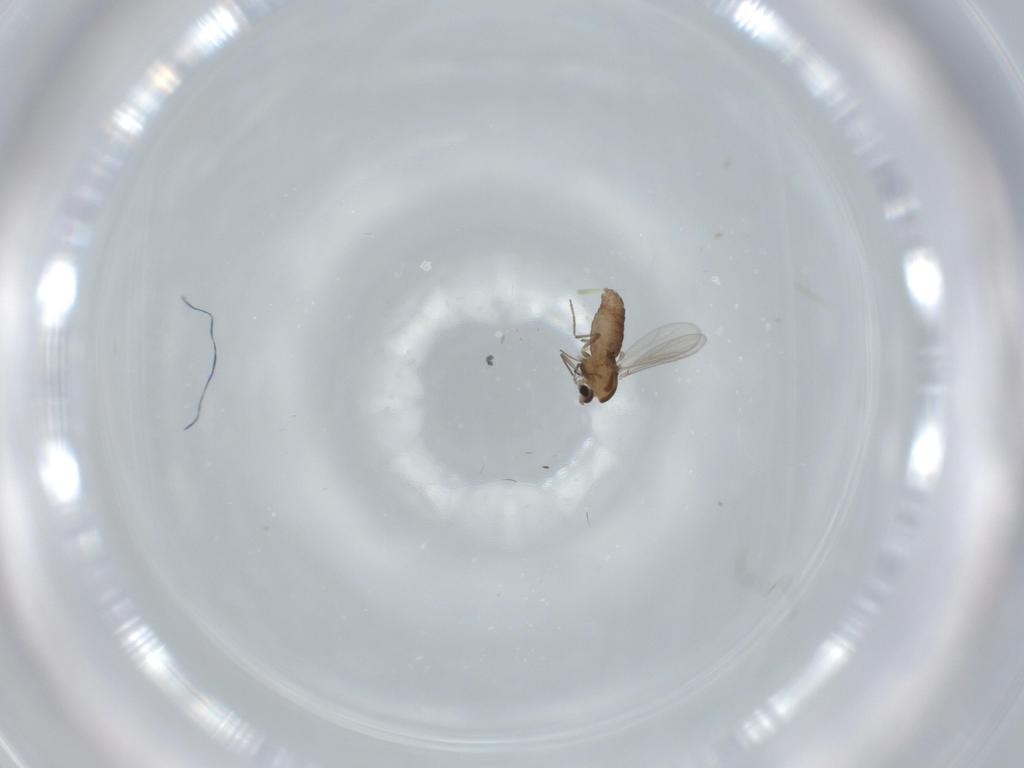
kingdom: Animalia
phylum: Arthropoda
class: Insecta
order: Diptera
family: Chironomidae
